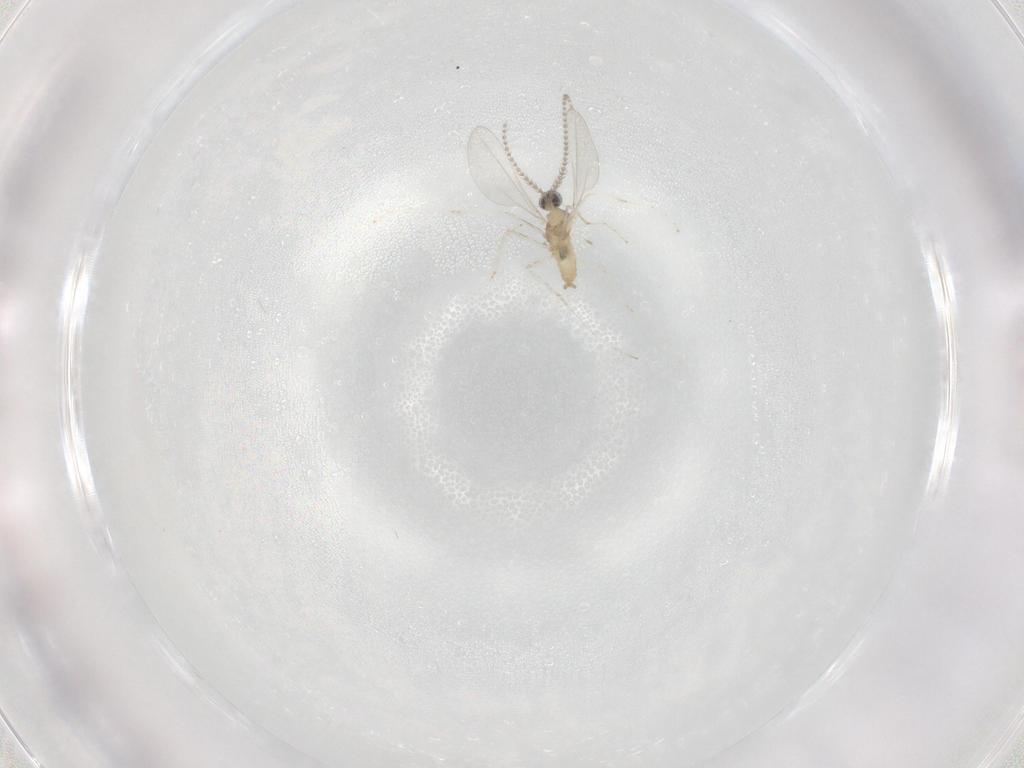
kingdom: Animalia
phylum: Arthropoda
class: Insecta
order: Diptera
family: Cecidomyiidae
